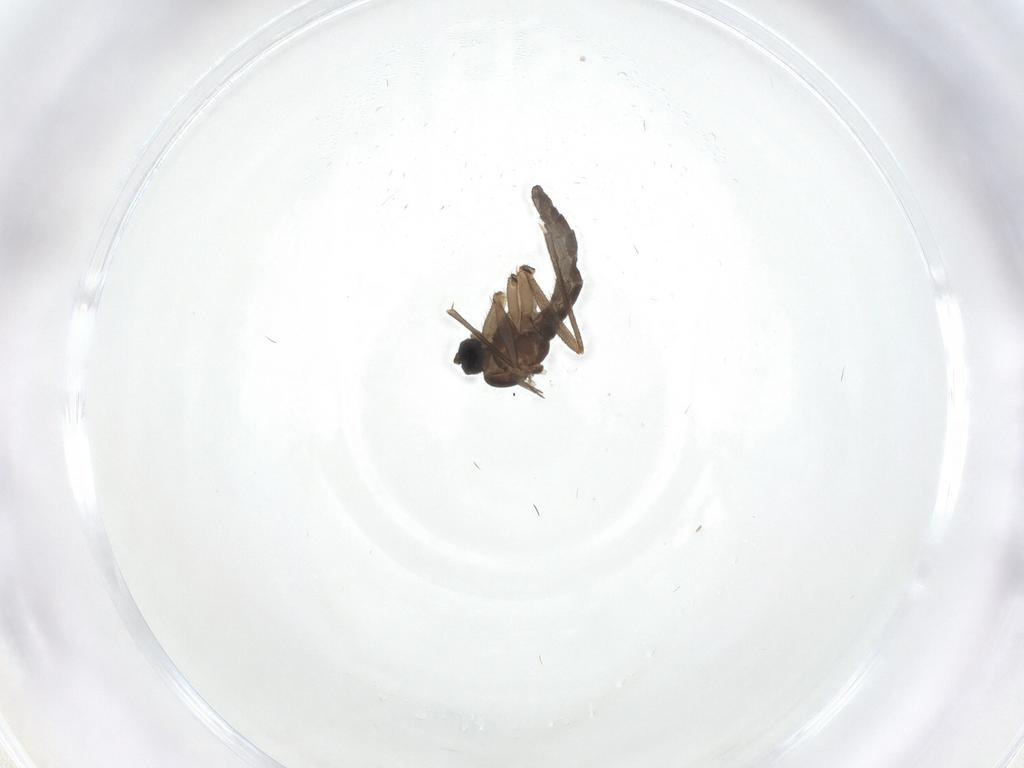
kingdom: Animalia
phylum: Arthropoda
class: Insecta
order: Diptera
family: Sciaridae
